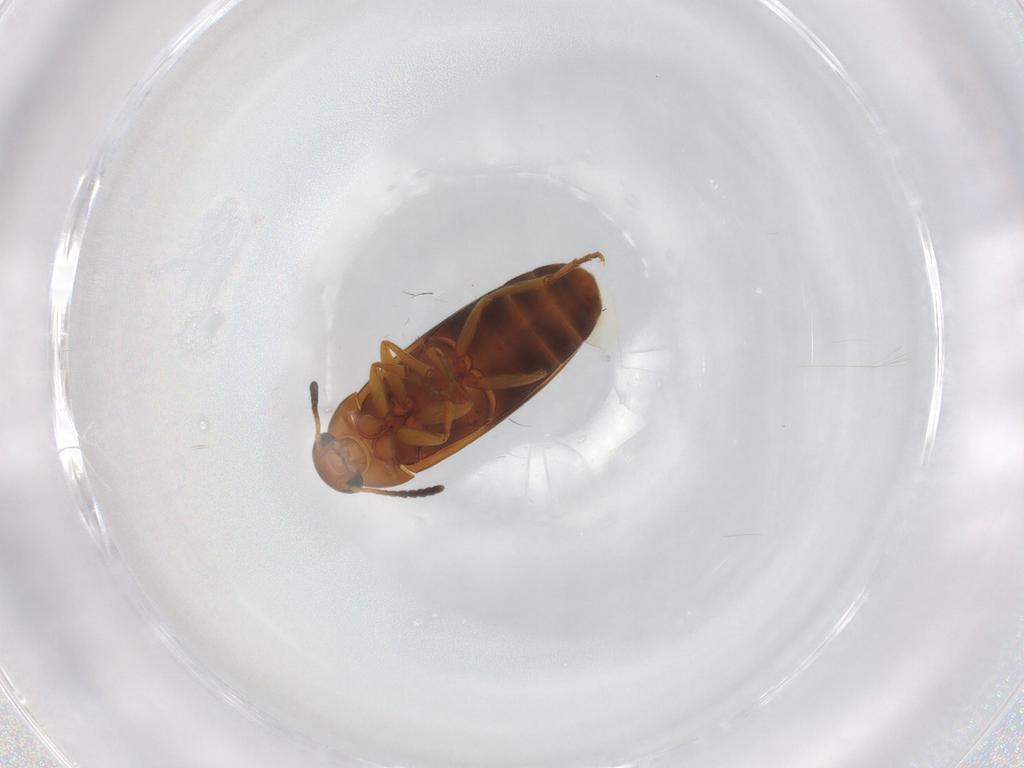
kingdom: Animalia
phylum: Arthropoda
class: Insecta
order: Coleoptera
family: Scraptiidae
